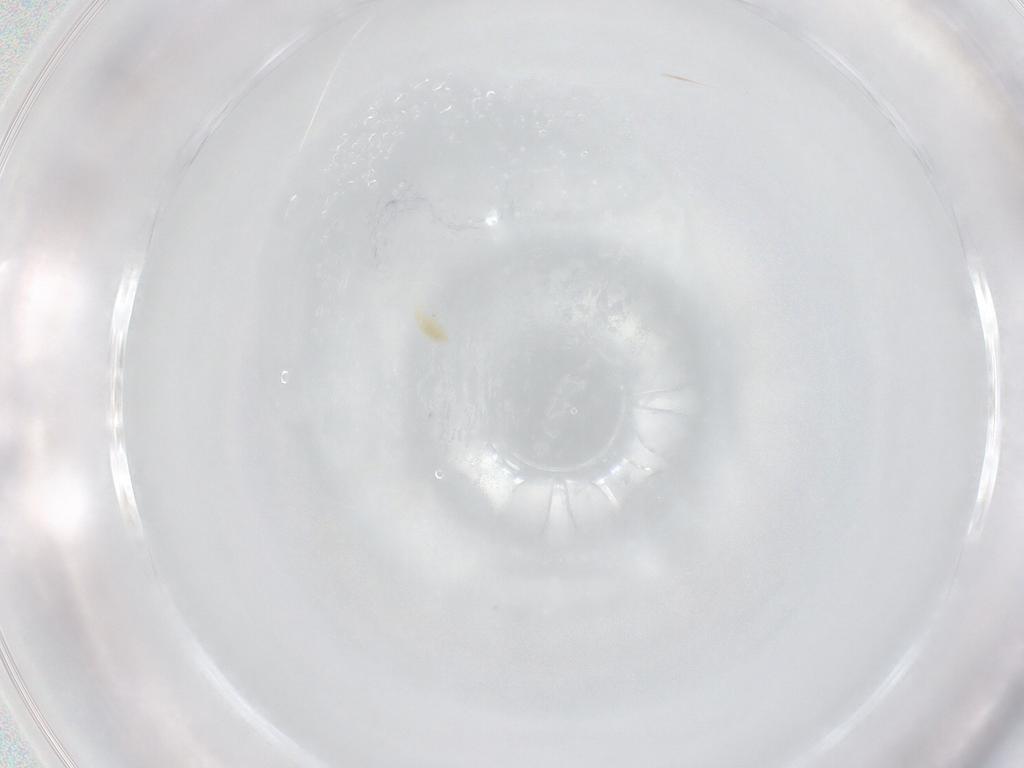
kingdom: Animalia
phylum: Arthropoda
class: Arachnida
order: Trombidiformes
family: Eupodidae
